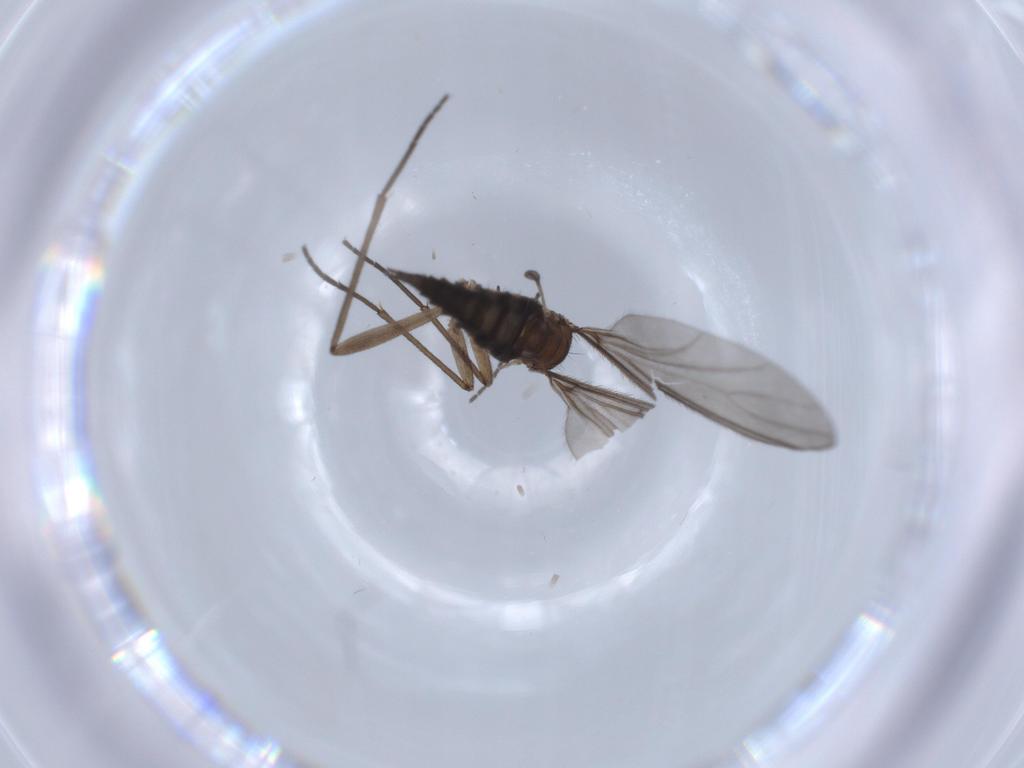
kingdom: Animalia
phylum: Arthropoda
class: Insecta
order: Diptera
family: Sciaridae
